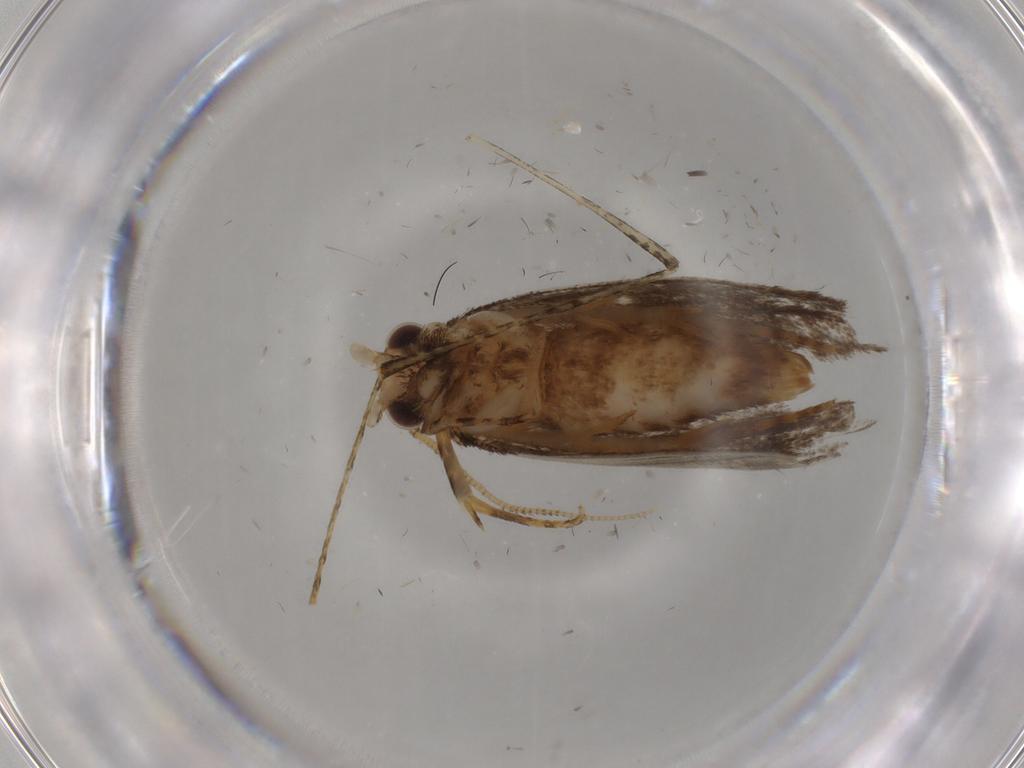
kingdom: Animalia
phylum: Arthropoda
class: Insecta
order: Lepidoptera
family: Tineidae
